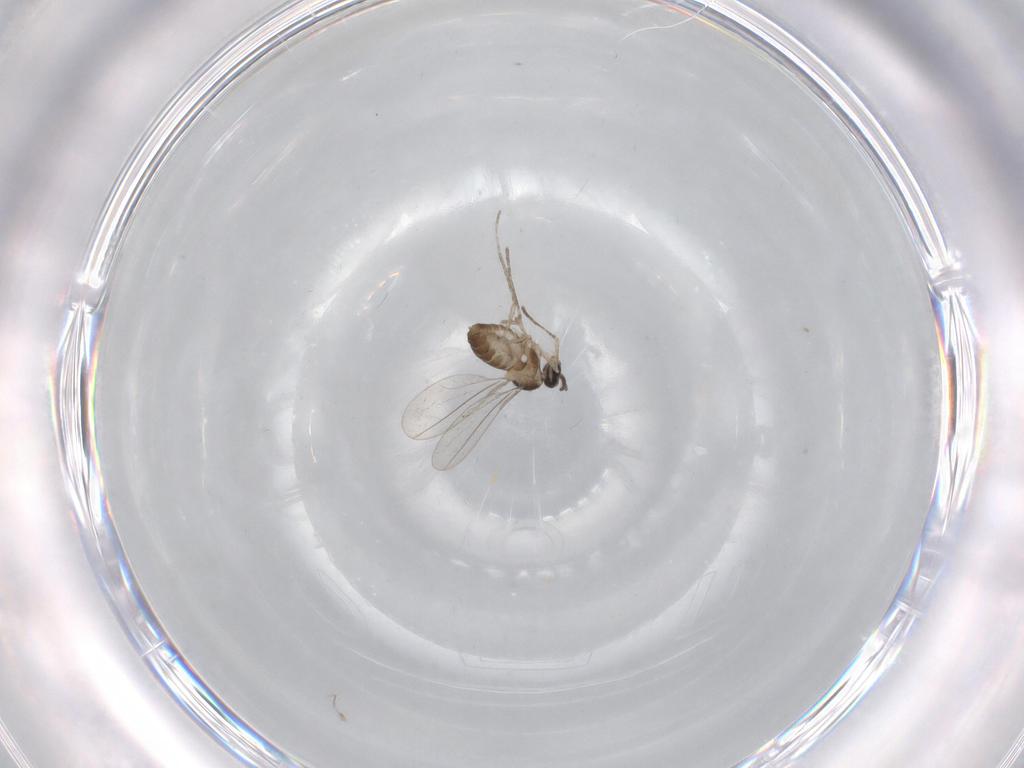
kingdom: Animalia
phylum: Arthropoda
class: Insecta
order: Diptera
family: Cecidomyiidae
